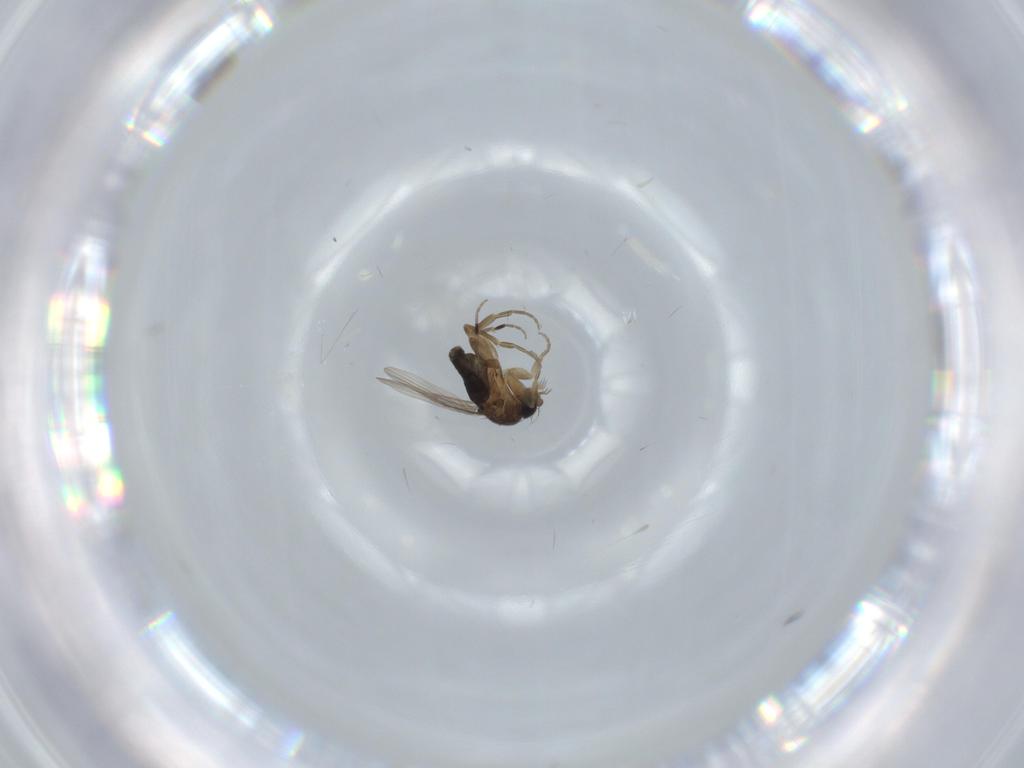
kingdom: Animalia
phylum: Arthropoda
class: Insecta
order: Diptera
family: Phoridae
